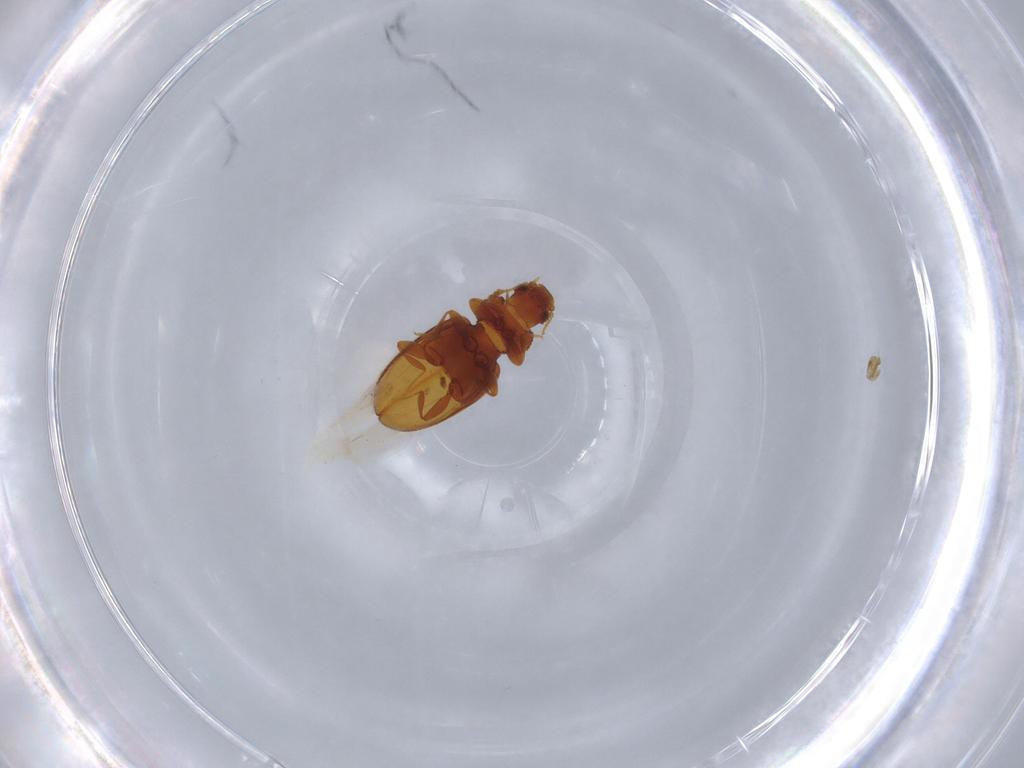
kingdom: Animalia
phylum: Arthropoda
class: Insecta
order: Coleoptera
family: Latridiidae
